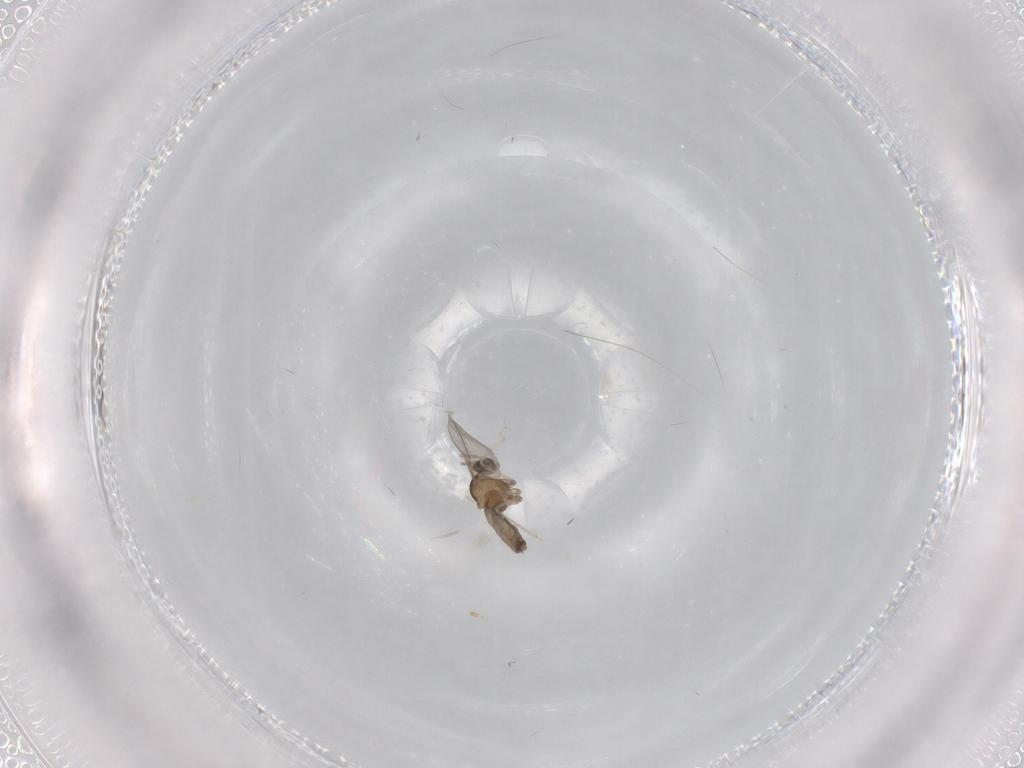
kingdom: Animalia
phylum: Arthropoda
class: Insecta
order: Diptera
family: Cecidomyiidae
